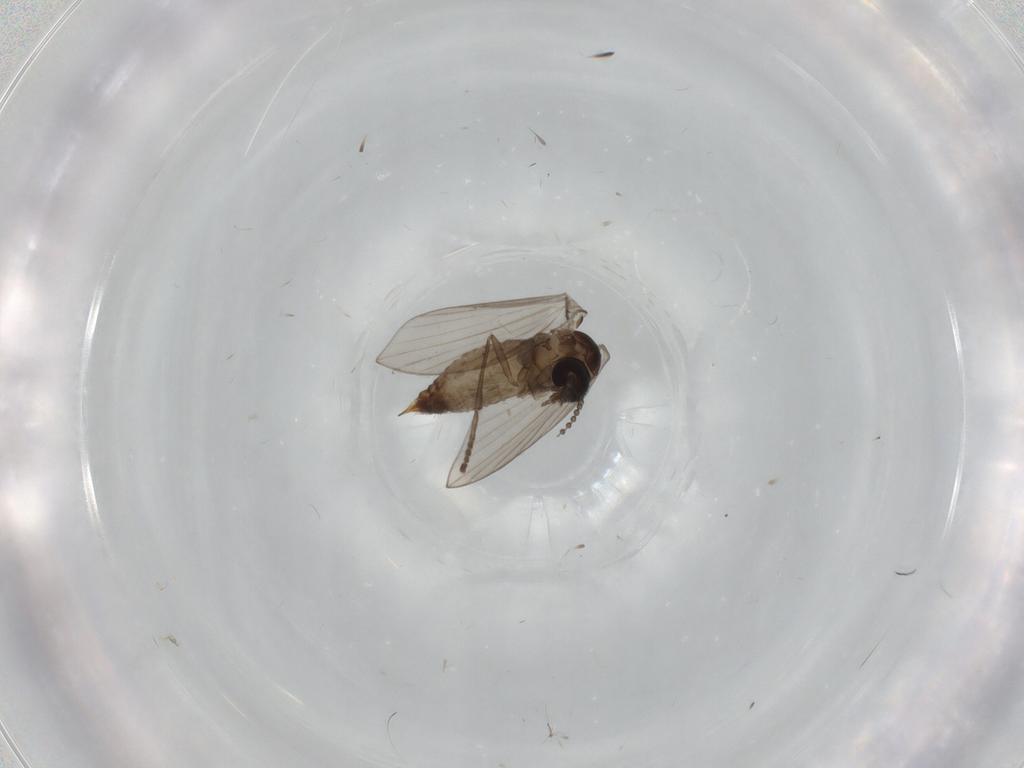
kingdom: Animalia
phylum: Arthropoda
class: Insecta
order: Diptera
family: Psychodidae
